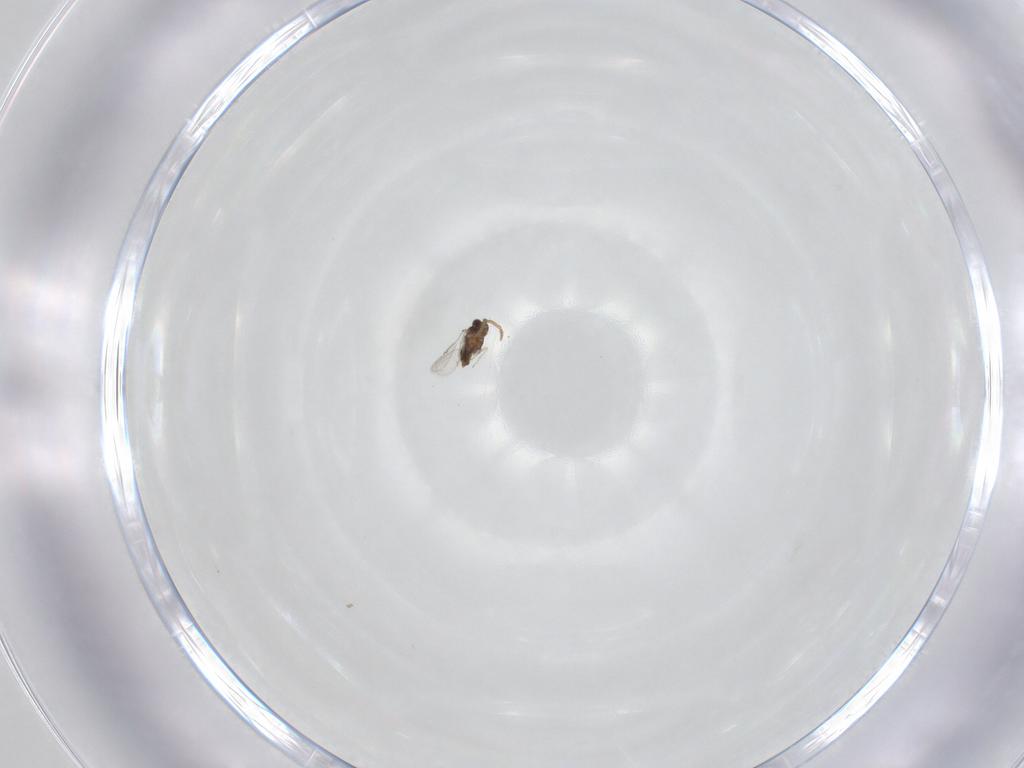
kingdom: Animalia
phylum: Arthropoda
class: Insecta
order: Hymenoptera
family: Aphelinidae
